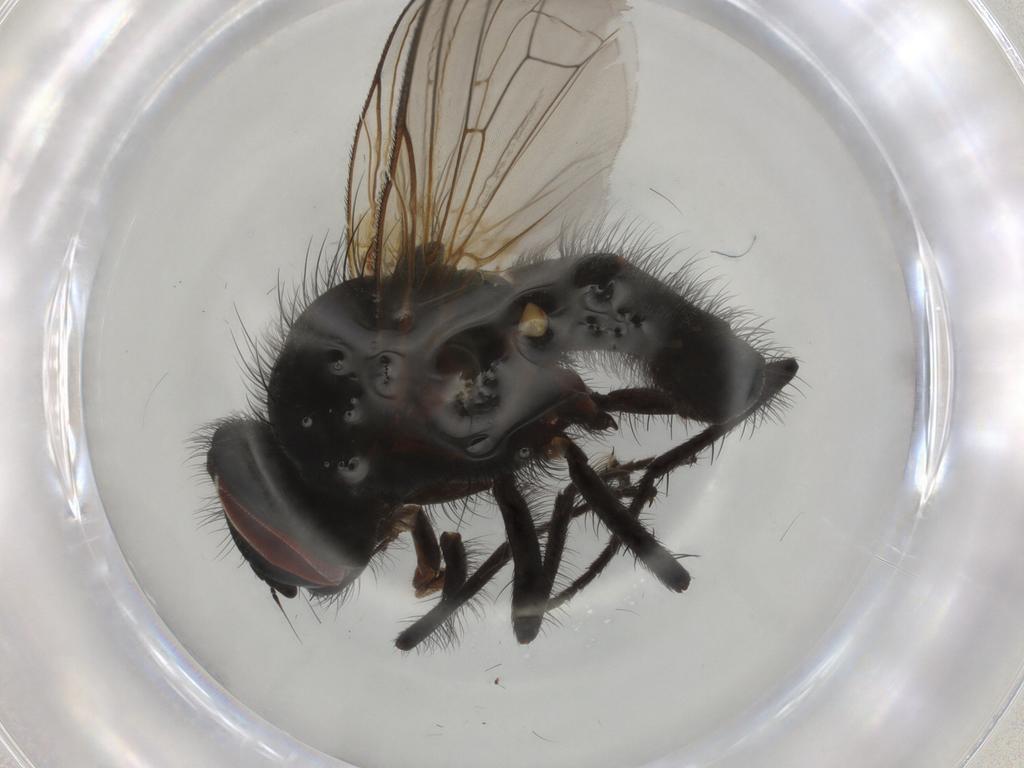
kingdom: Animalia
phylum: Arthropoda
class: Insecta
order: Diptera
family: Anthomyiidae
